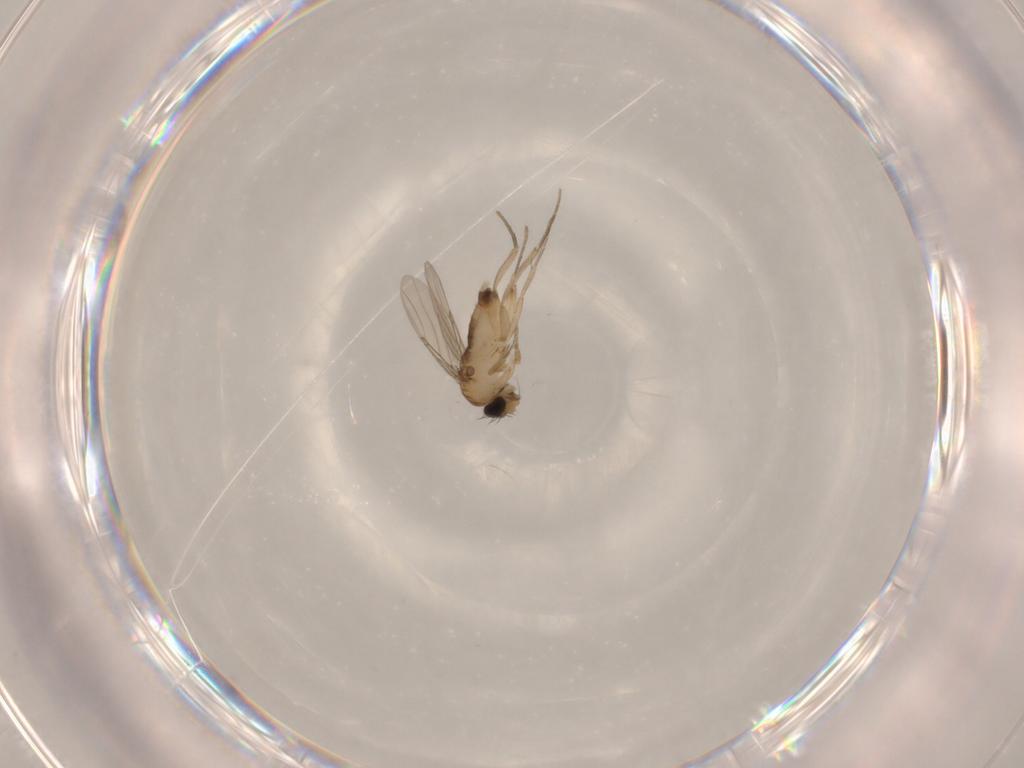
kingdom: Animalia
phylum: Arthropoda
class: Insecta
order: Diptera
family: Phoridae
